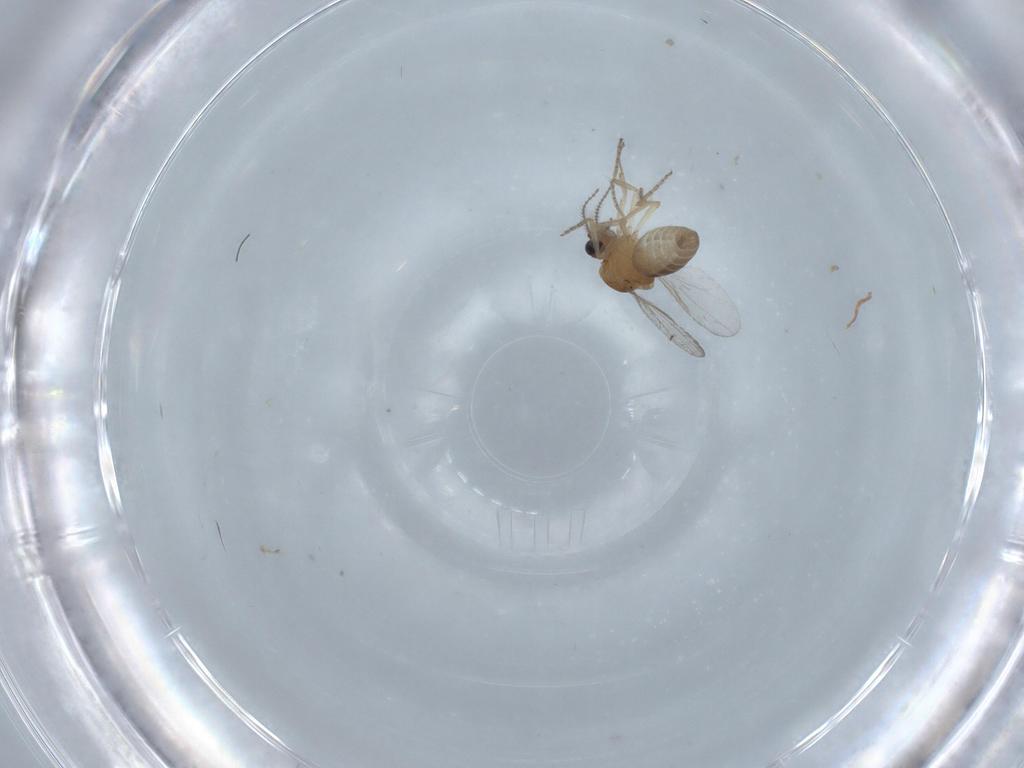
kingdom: Animalia
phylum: Arthropoda
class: Insecta
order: Diptera
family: Ceratopogonidae
